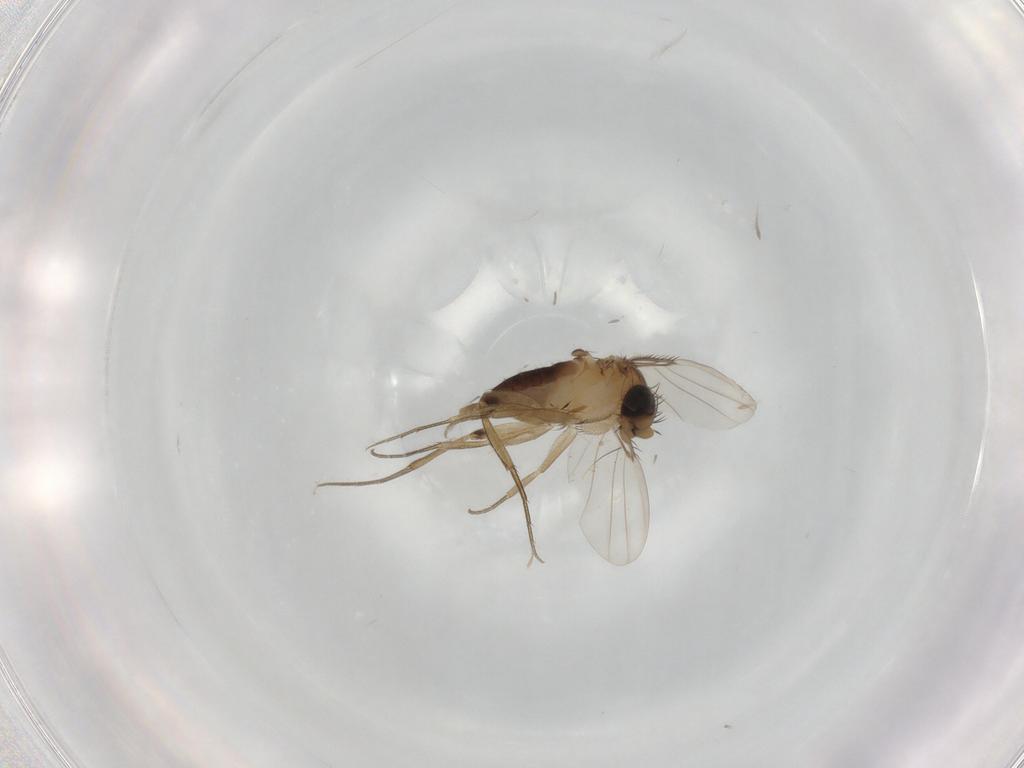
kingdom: Animalia
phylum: Arthropoda
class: Insecta
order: Diptera
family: Phoridae
